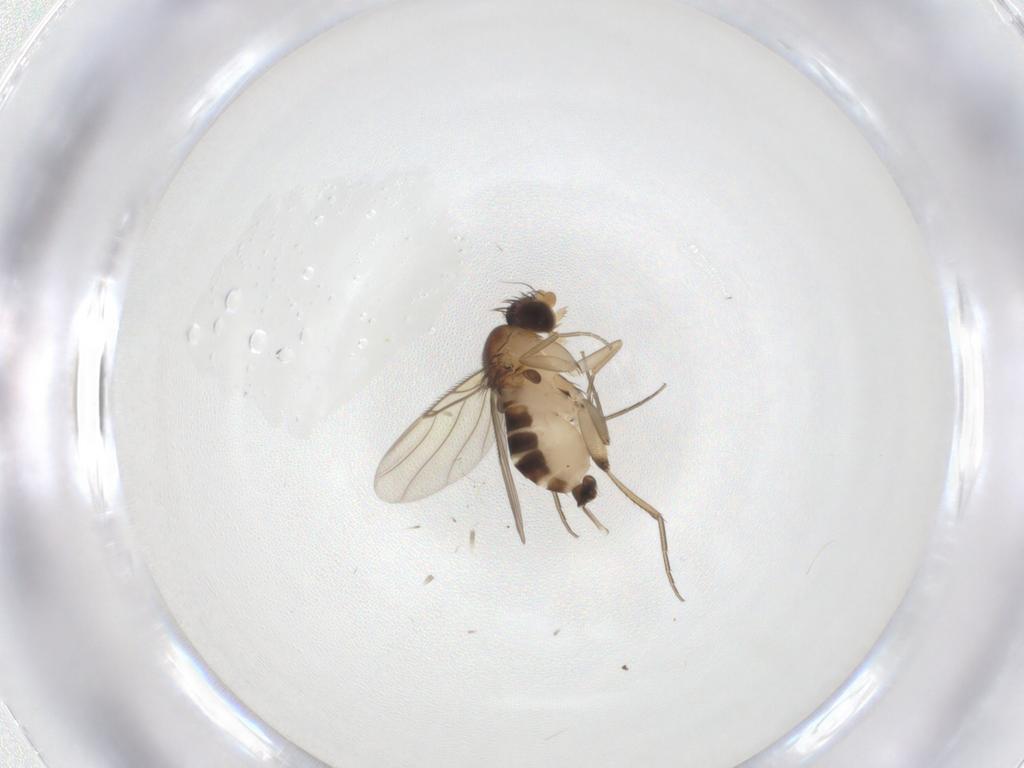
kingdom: Animalia
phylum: Arthropoda
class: Insecta
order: Diptera
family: Phoridae
